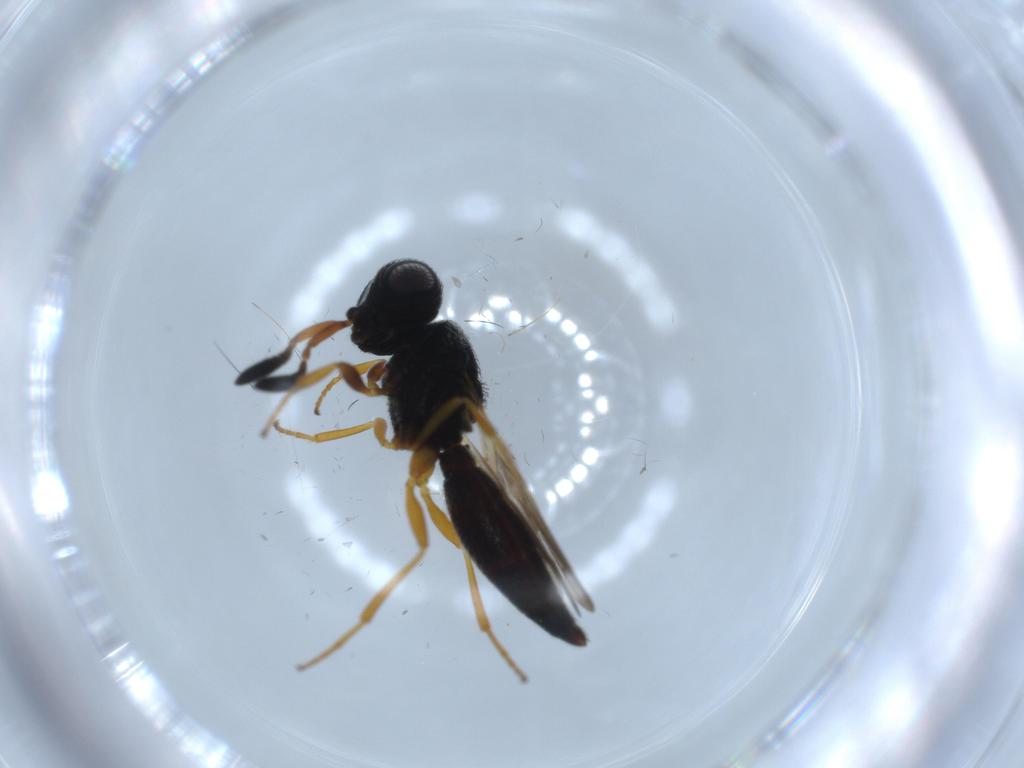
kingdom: Animalia
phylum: Arthropoda
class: Insecta
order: Hymenoptera
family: Scelionidae
